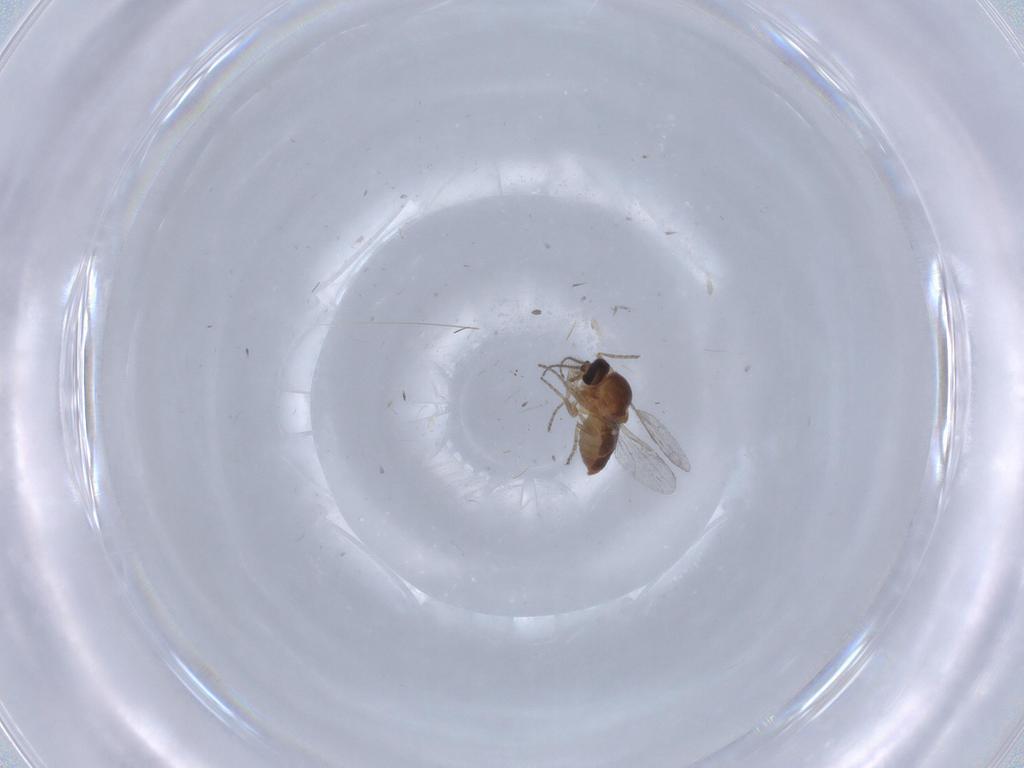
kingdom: Animalia
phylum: Arthropoda
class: Insecta
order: Diptera
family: Ceratopogonidae
